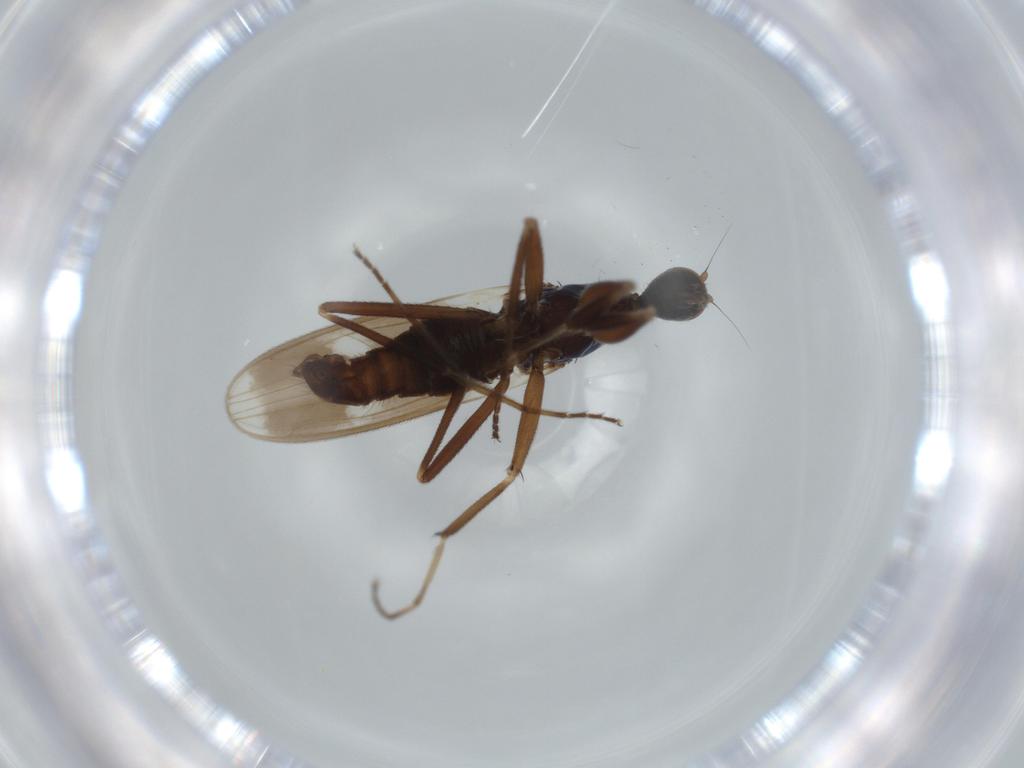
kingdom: Animalia
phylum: Arthropoda
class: Insecta
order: Diptera
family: Hybotidae
